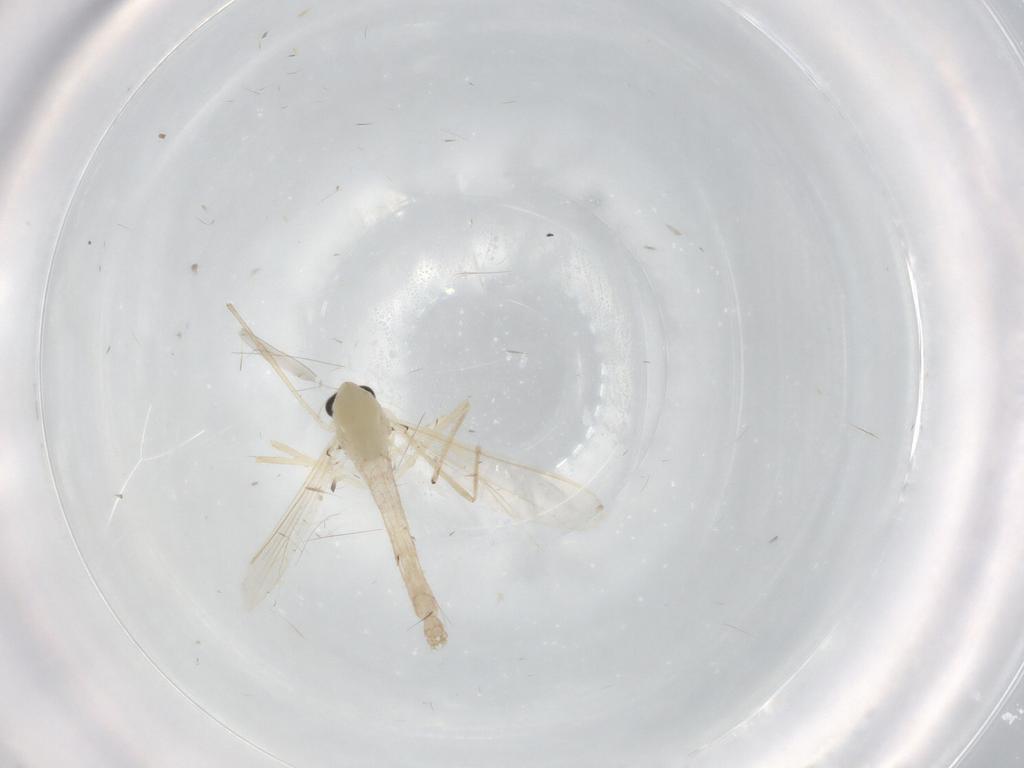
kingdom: Animalia
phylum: Arthropoda
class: Insecta
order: Diptera
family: Chironomidae
